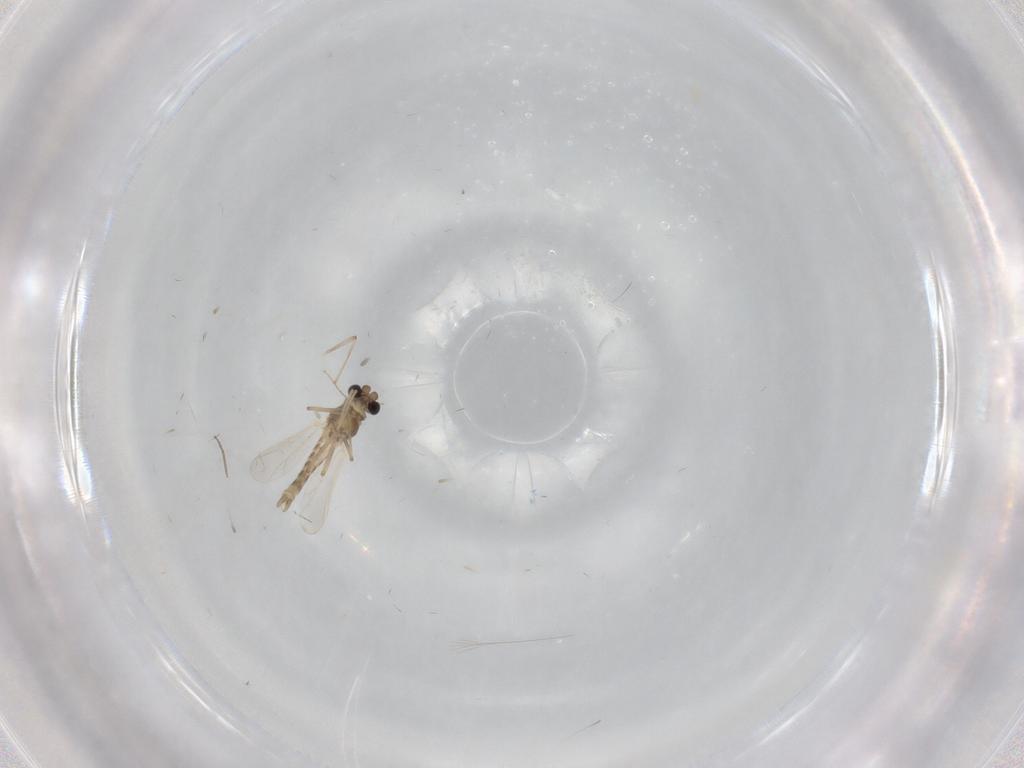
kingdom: Animalia
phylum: Arthropoda
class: Insecta
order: Diptera
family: Chironomidae
